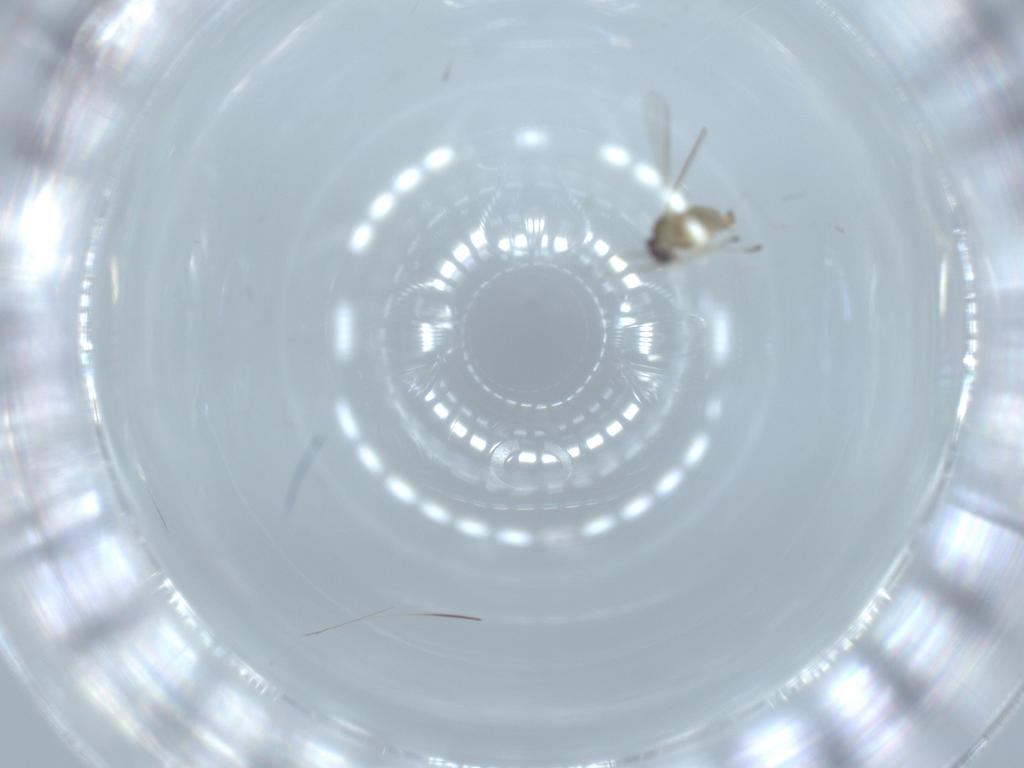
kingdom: Animalia
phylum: Arthropoda
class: Insecta
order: Diptera
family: Cecidomyiidae
